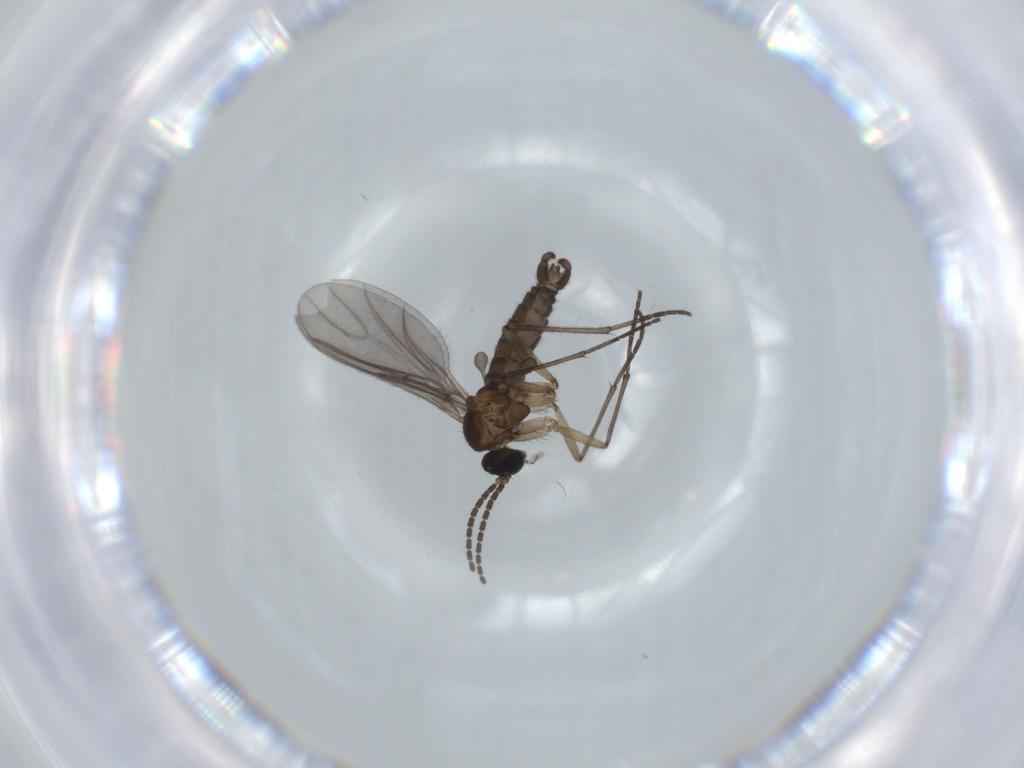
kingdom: Animalia
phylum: Arthropoda
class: Insecta
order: Diptera
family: Sciaridae
